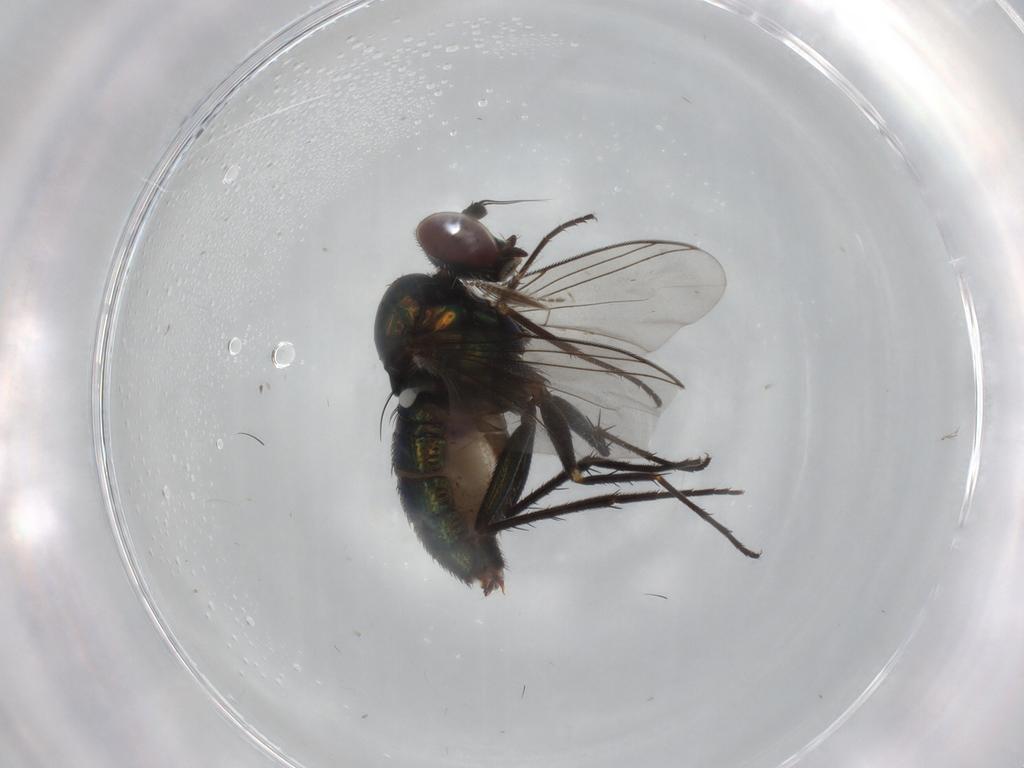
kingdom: Animalia
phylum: Arthropoda
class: Insecta
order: Diptera
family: Dolichopodidae
